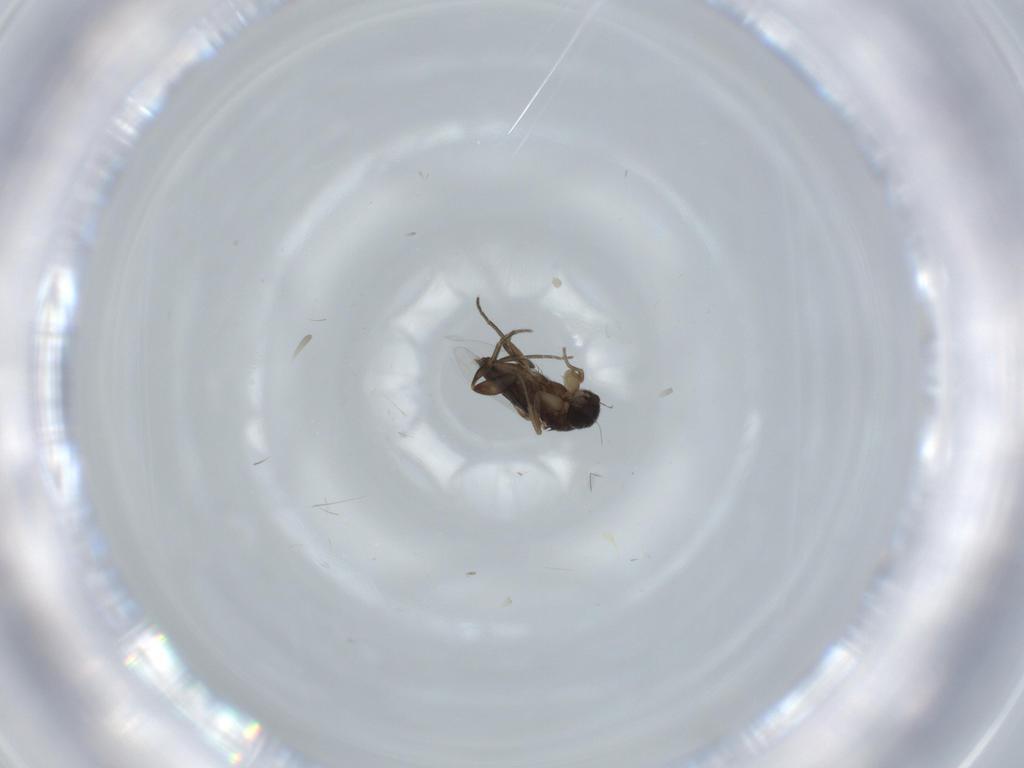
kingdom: Animalia
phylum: Arthropoda
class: Insecta
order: Diptera
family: Phoridae
